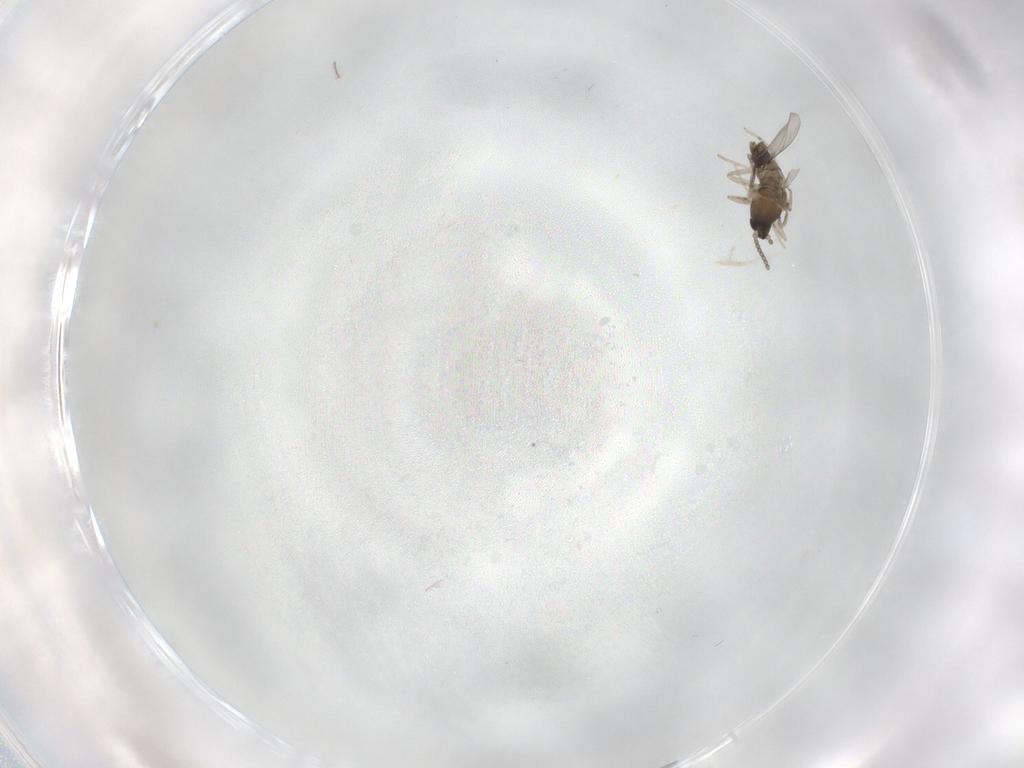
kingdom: Animalia
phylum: Arthropoda
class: Insecta
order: Diptera
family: Cecidomyiidae
